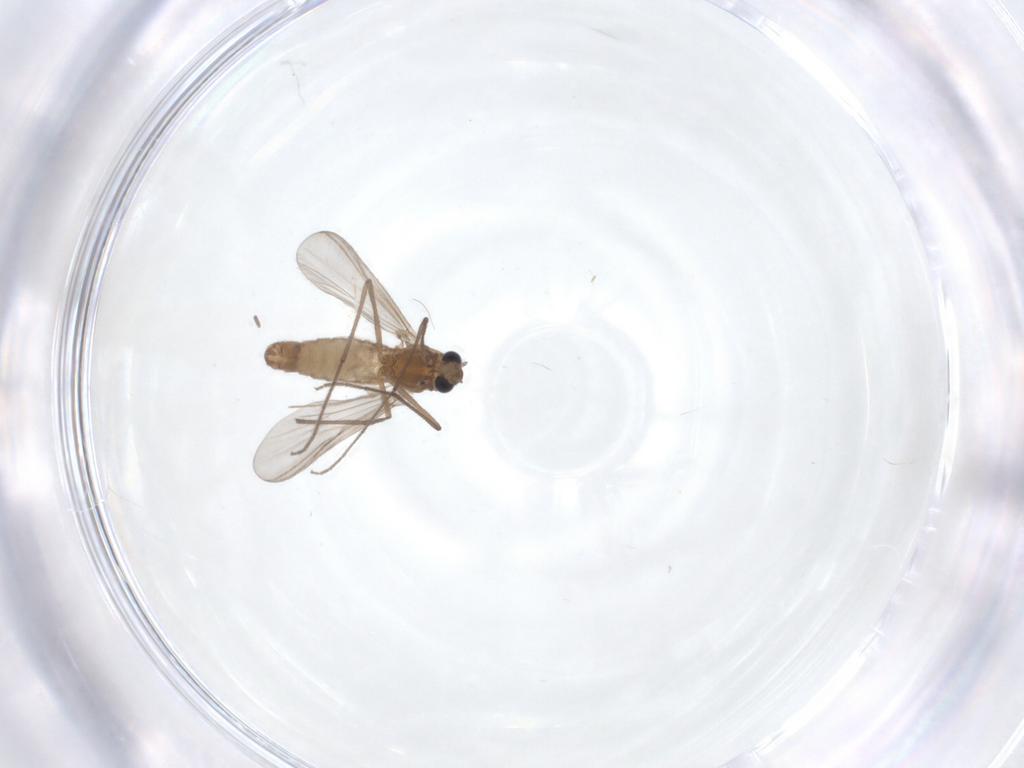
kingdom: Animalia
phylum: Arthropoda
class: Insecta
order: Diptera
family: Chironomidae
